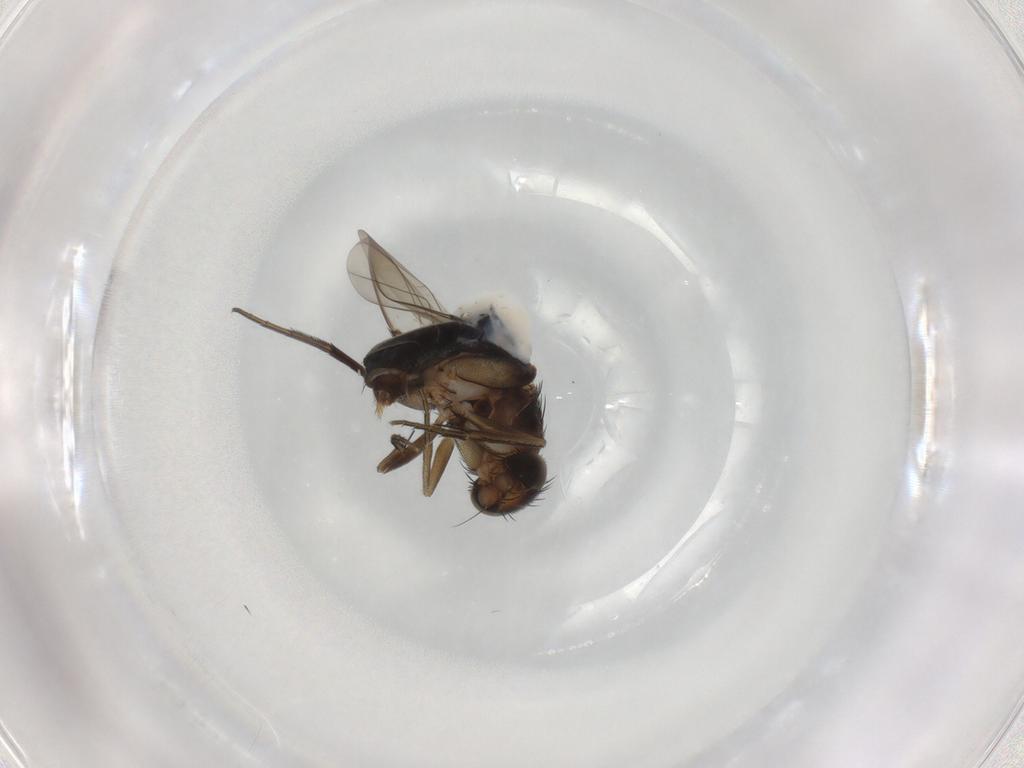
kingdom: Animalia
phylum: Arthropoda
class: Insecta
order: Diptera
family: Phoridae
